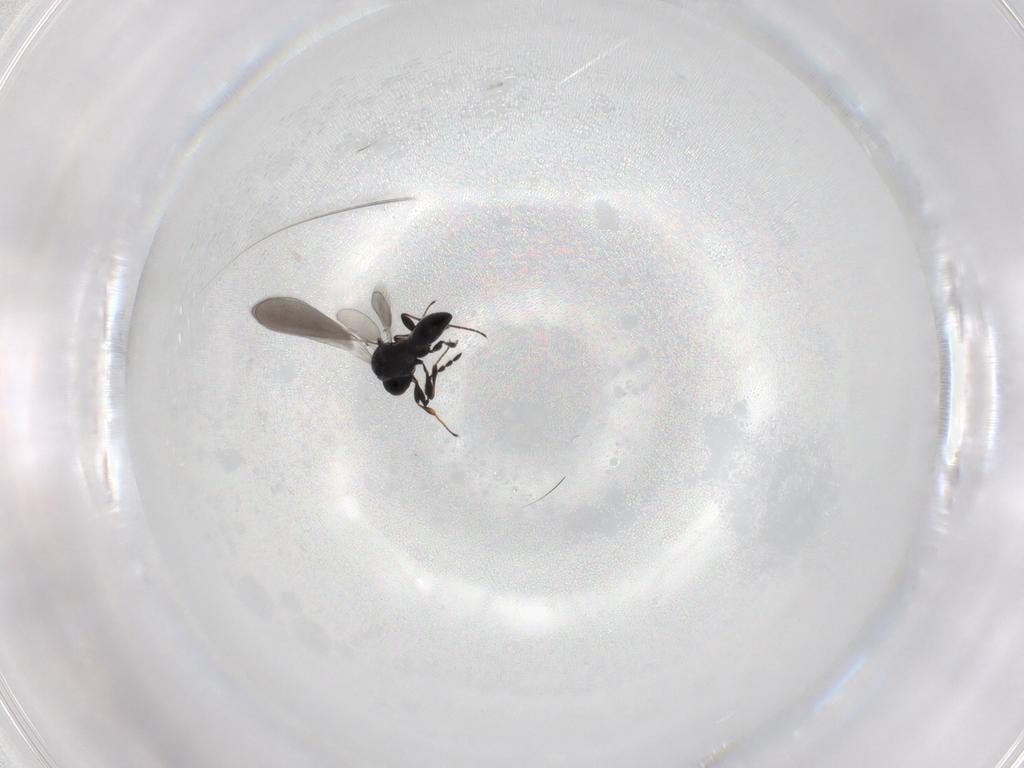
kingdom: Animalia
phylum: Arthropoda
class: Insecta
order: Hymenoptera
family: Platygastridae
